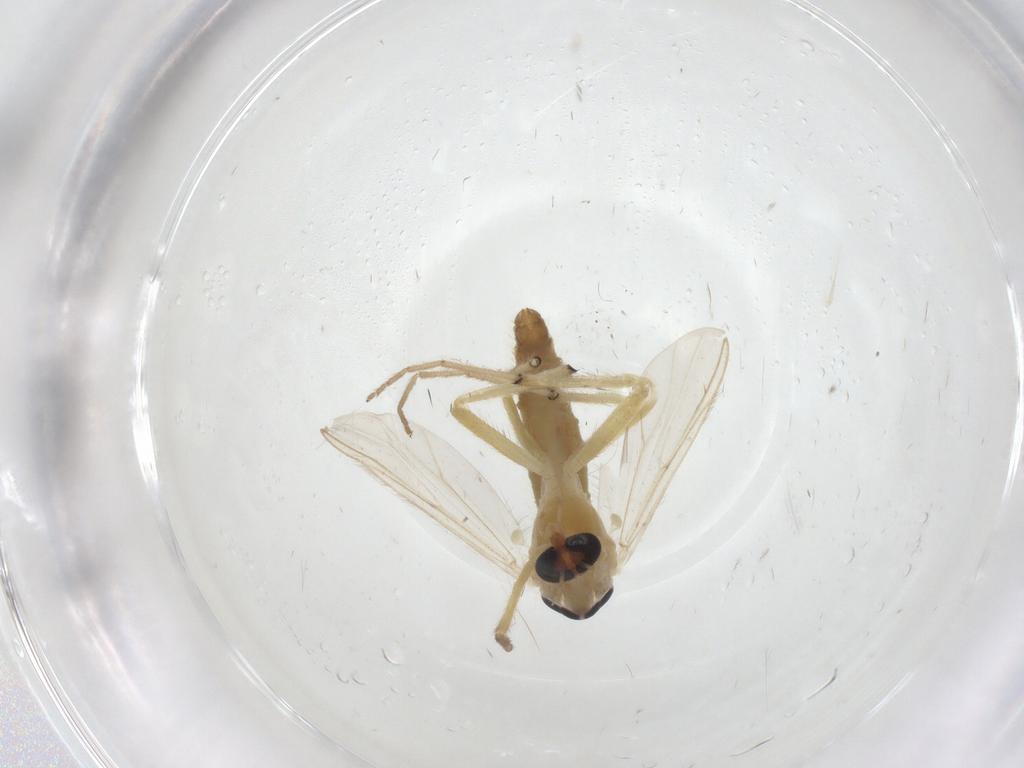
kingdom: Animalia
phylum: Arthropoda
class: Insecta
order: Diptera
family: Chironomidae
